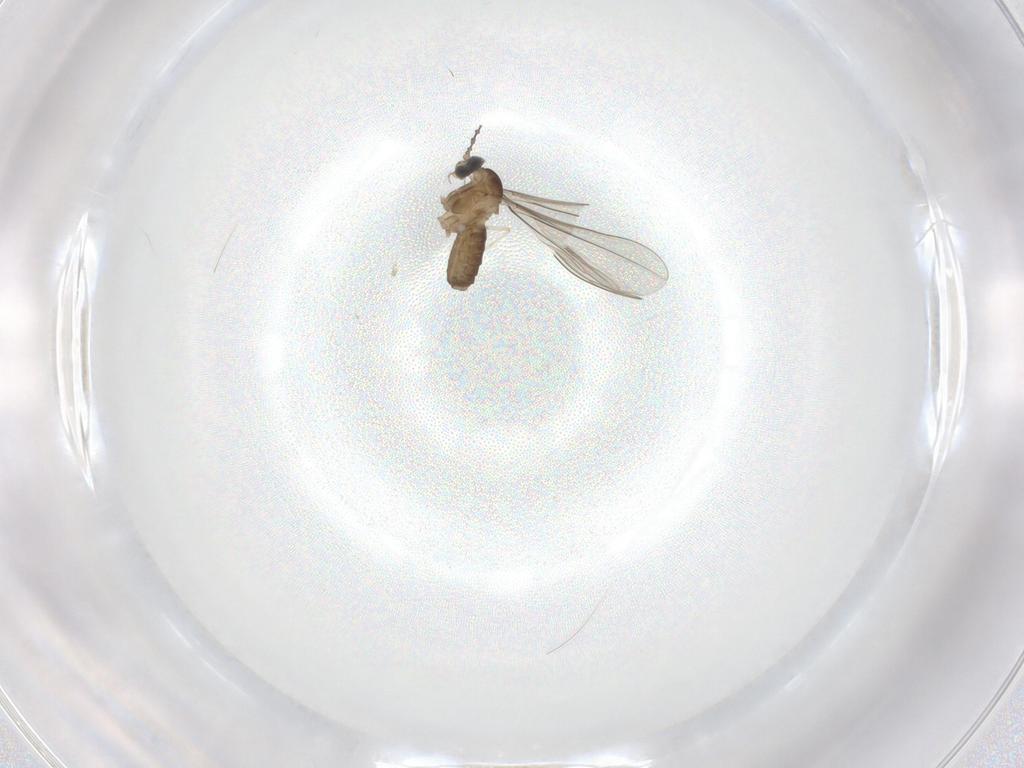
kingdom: Animalia
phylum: Arthropoda
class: Insecta
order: Diptera
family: Cecidomyiidae
